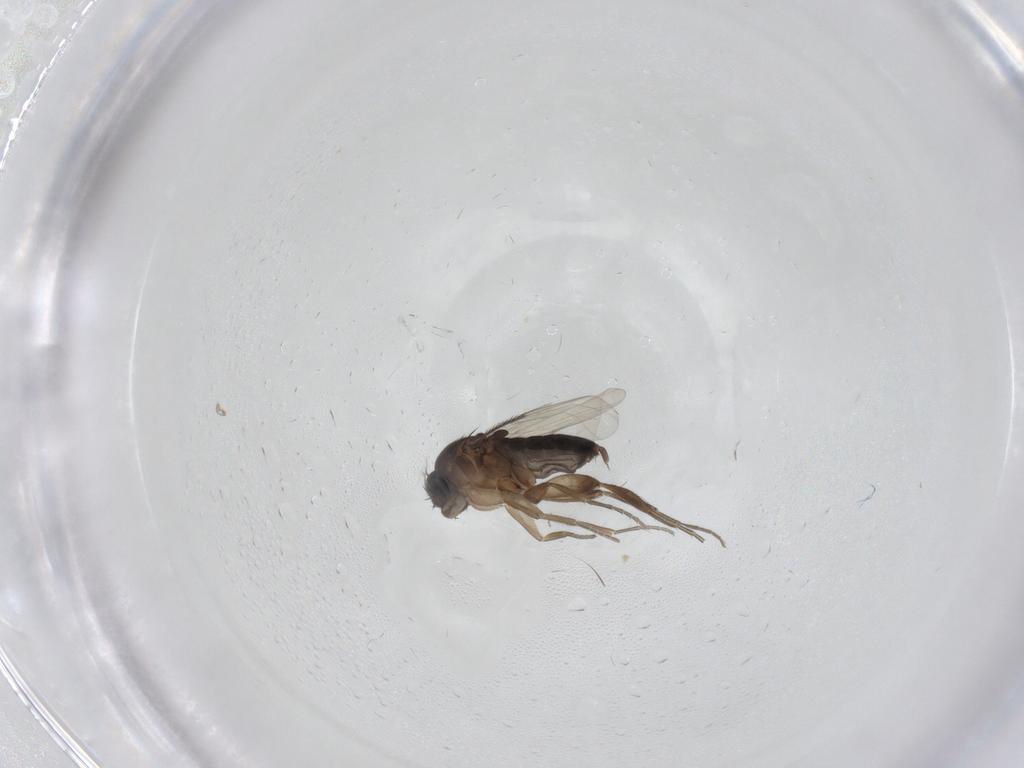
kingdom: Animalia
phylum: Arthropoda
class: Insecta
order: Diptera
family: Phoridae
